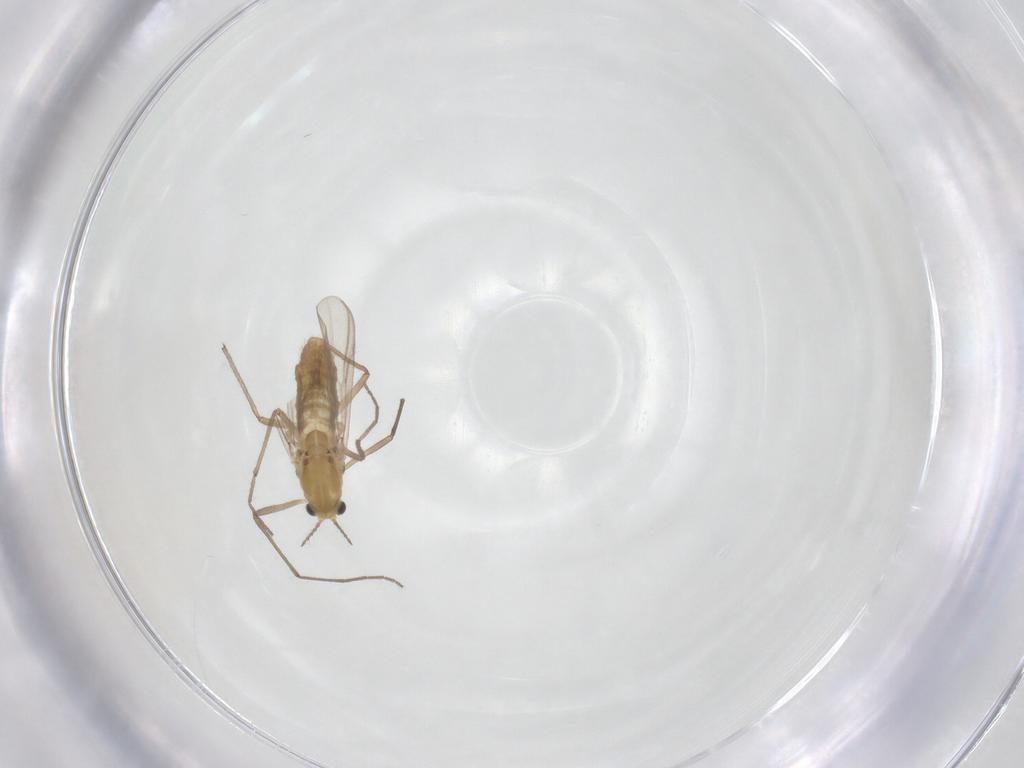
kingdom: Animalia
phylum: Arthropoda
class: Insecta
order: Diptera
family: Chironomidae
